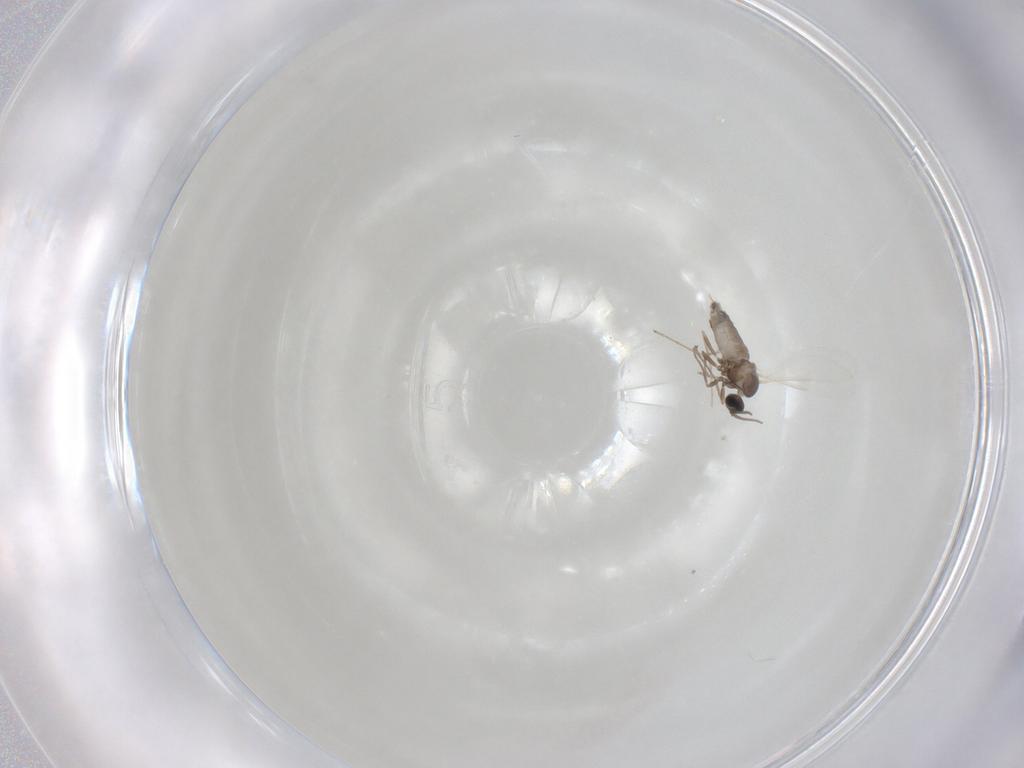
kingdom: Animalia
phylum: Arthropoda
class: Insecta
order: Diptera
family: Cecidomyiidae
